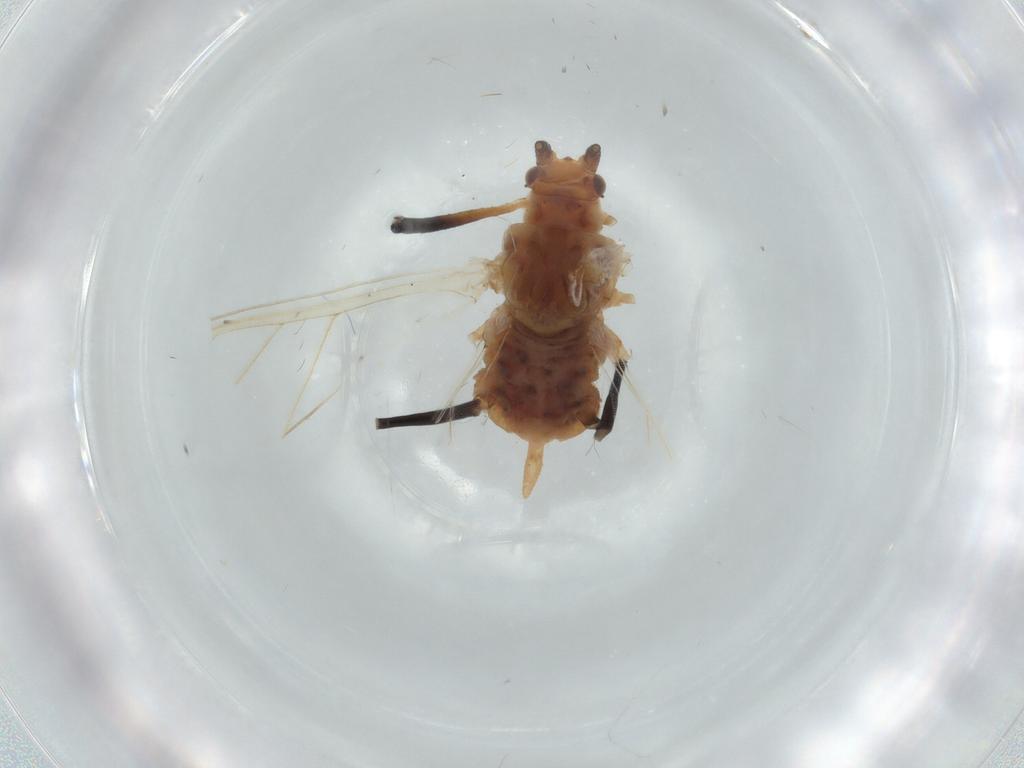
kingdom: Animalia
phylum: Arthropoda
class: Insecta
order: Hemiptera
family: Aphididae
